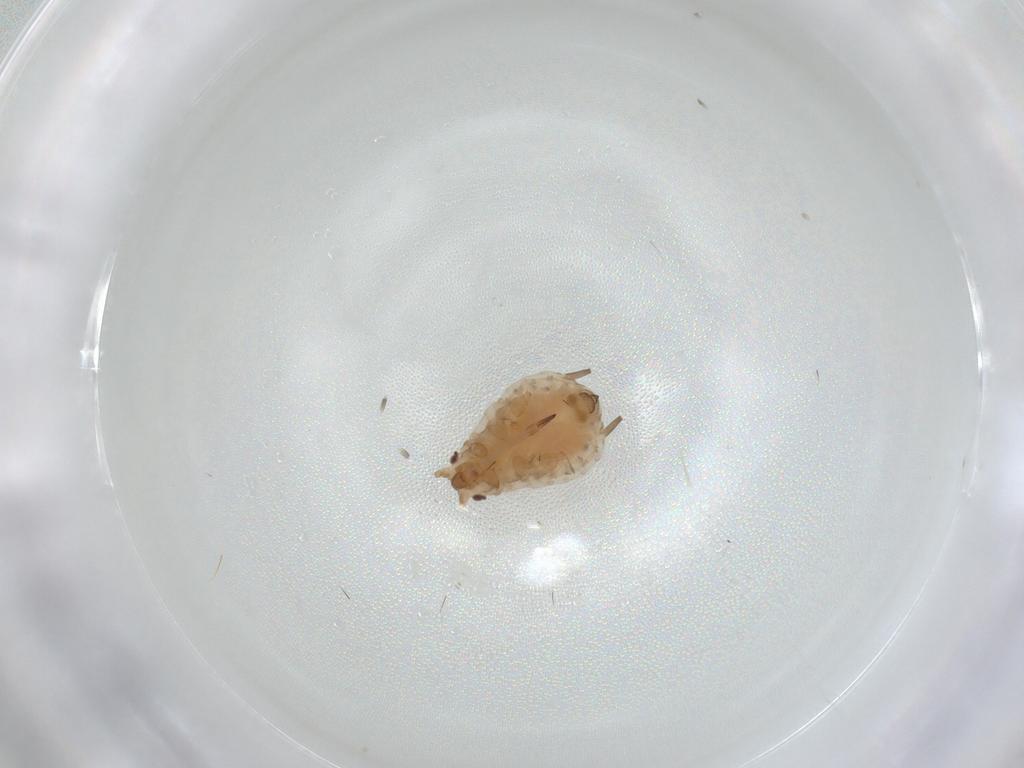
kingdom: Animalia
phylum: Arthropoda
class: Insecta
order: Hemiptera
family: Aphididae
